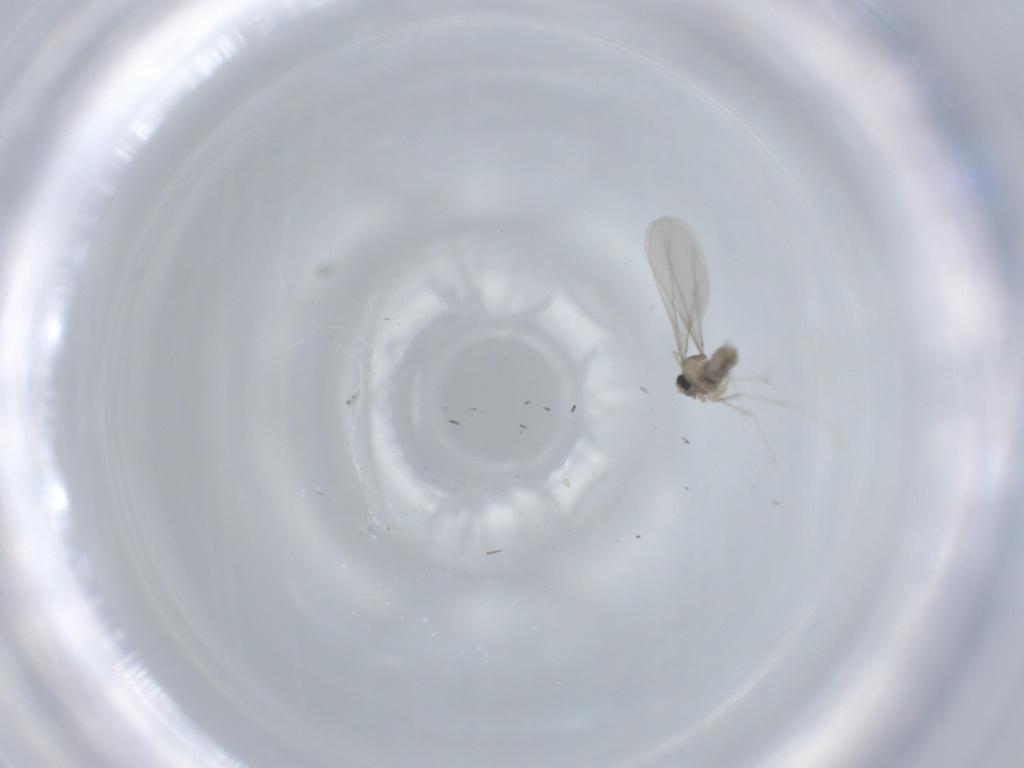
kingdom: Animalia
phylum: Arthropoda
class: Insecta
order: Diptera
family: Cecidomyiidae
